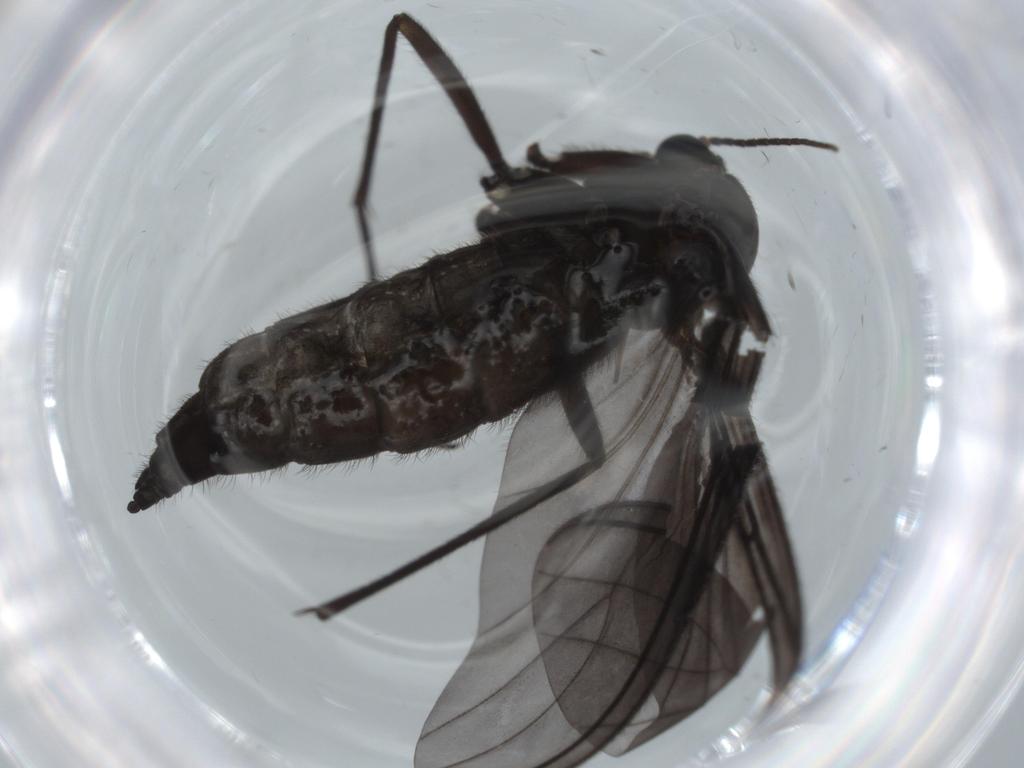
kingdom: Animalia
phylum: Arthropoda
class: Insecta
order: Diptera
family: Sciaridae
